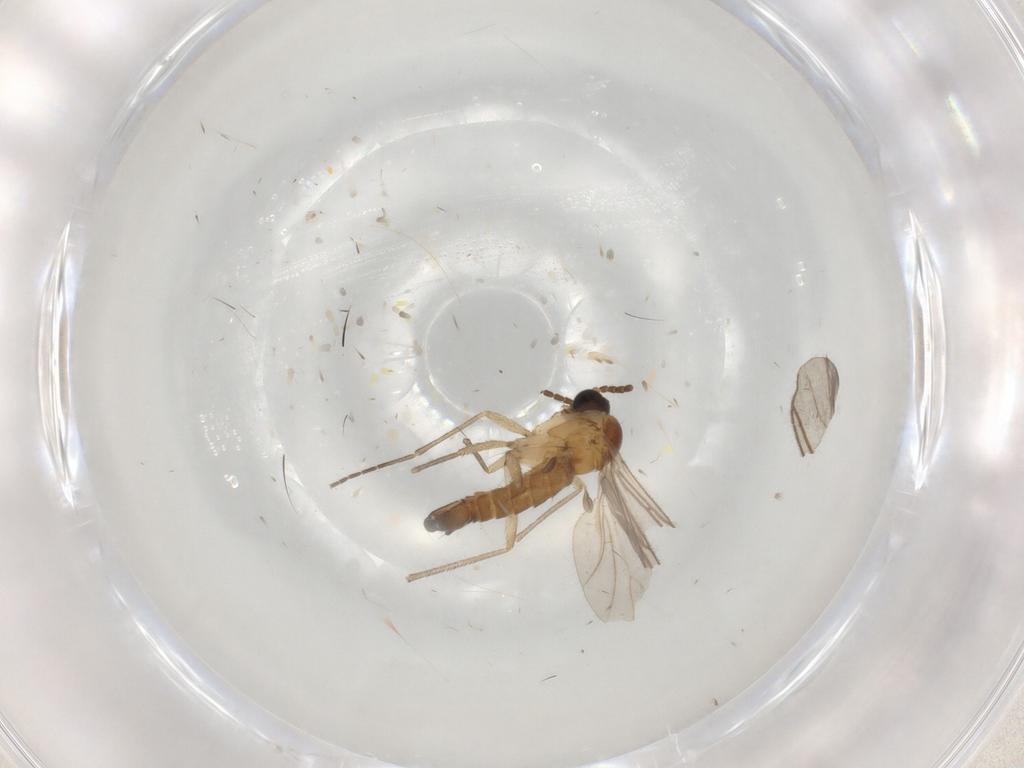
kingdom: Animalia
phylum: Arthropoda
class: Insecta
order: Diptera
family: Sciaridae
